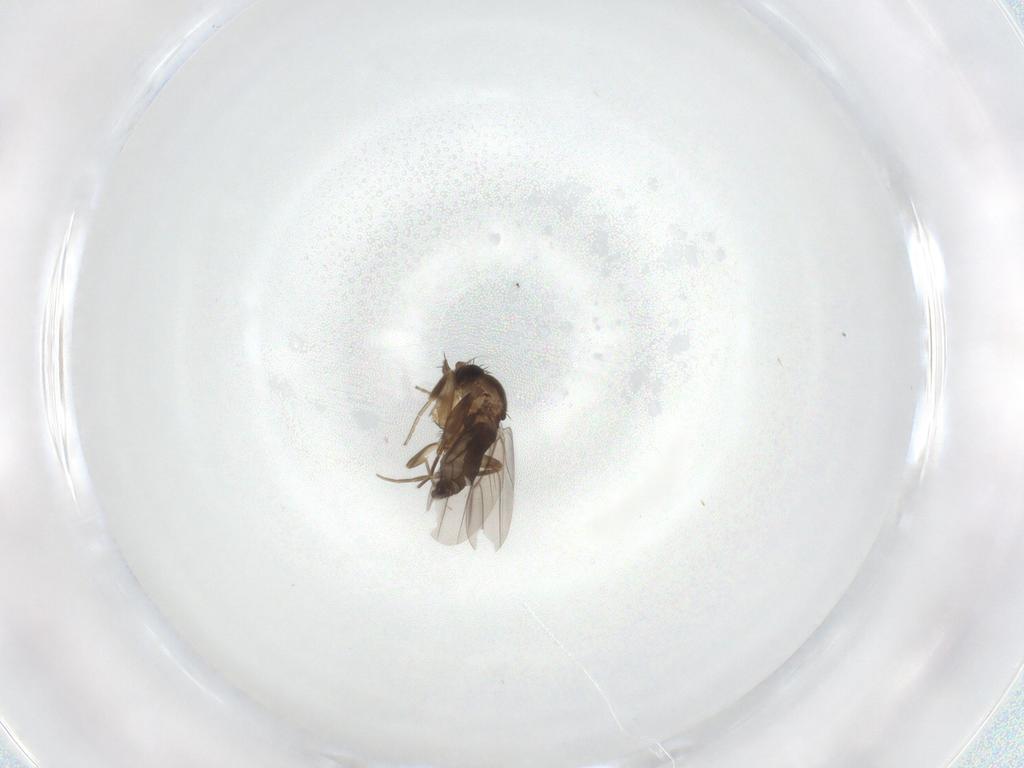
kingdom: Animalia
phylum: Arthropoda
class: Insecta
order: Diptera
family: Phoridae
